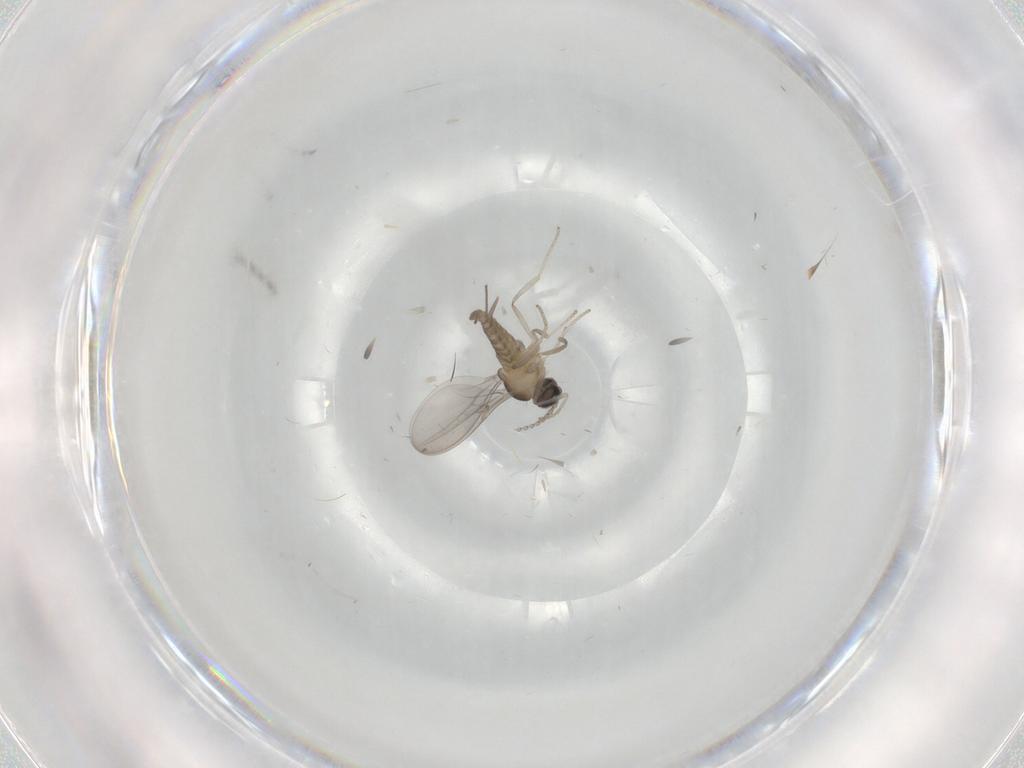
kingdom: Animalia
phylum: Arthropoda
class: Insecta
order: Diptera
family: Chironomidae
